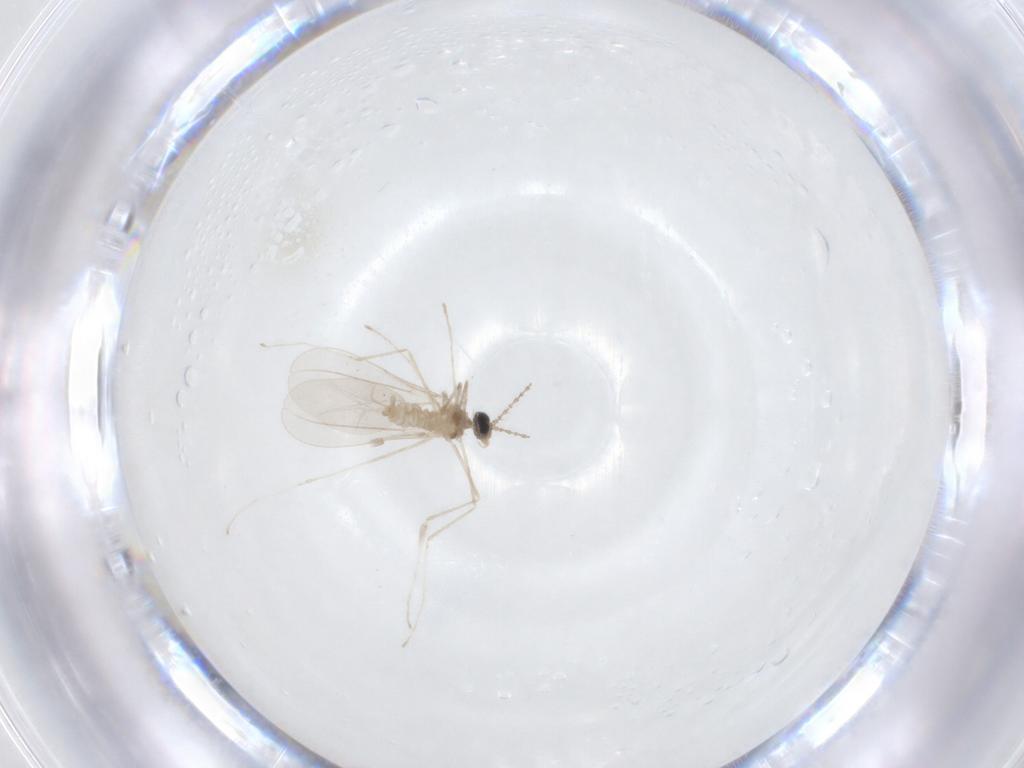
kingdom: Animalia
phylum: Arthropoda
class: Insecta
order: Diptera
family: Cecidomyiidae
